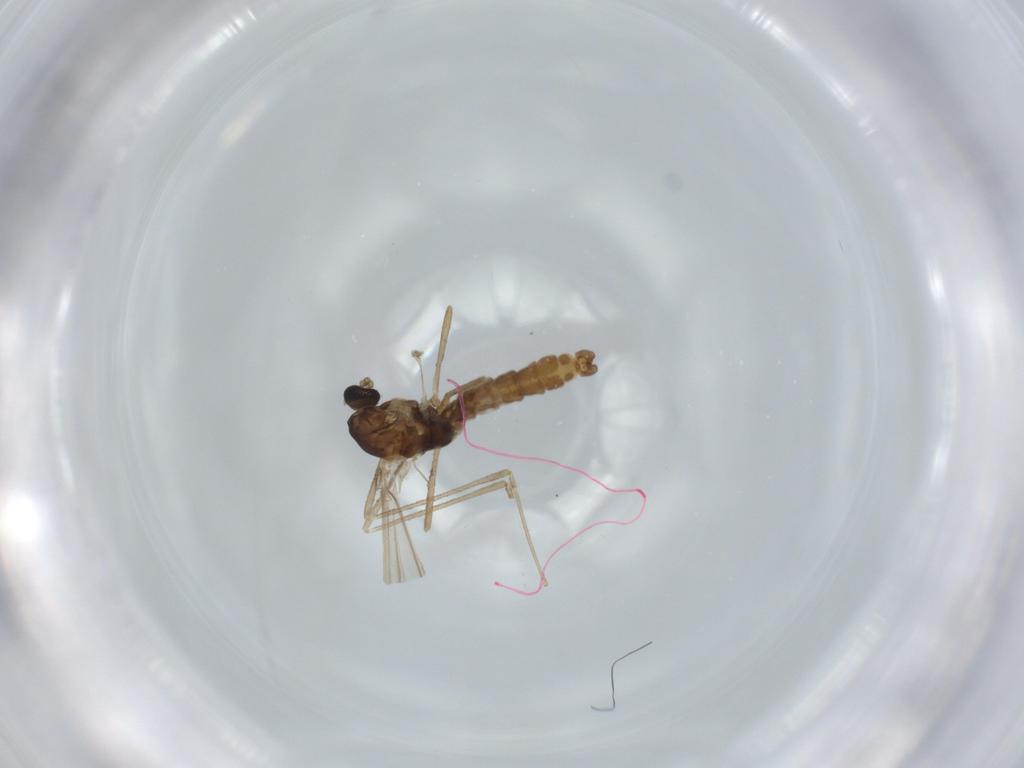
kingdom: Animalia
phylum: Arthropoda
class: Insecta
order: Diptera
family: Cecidomyiidae
